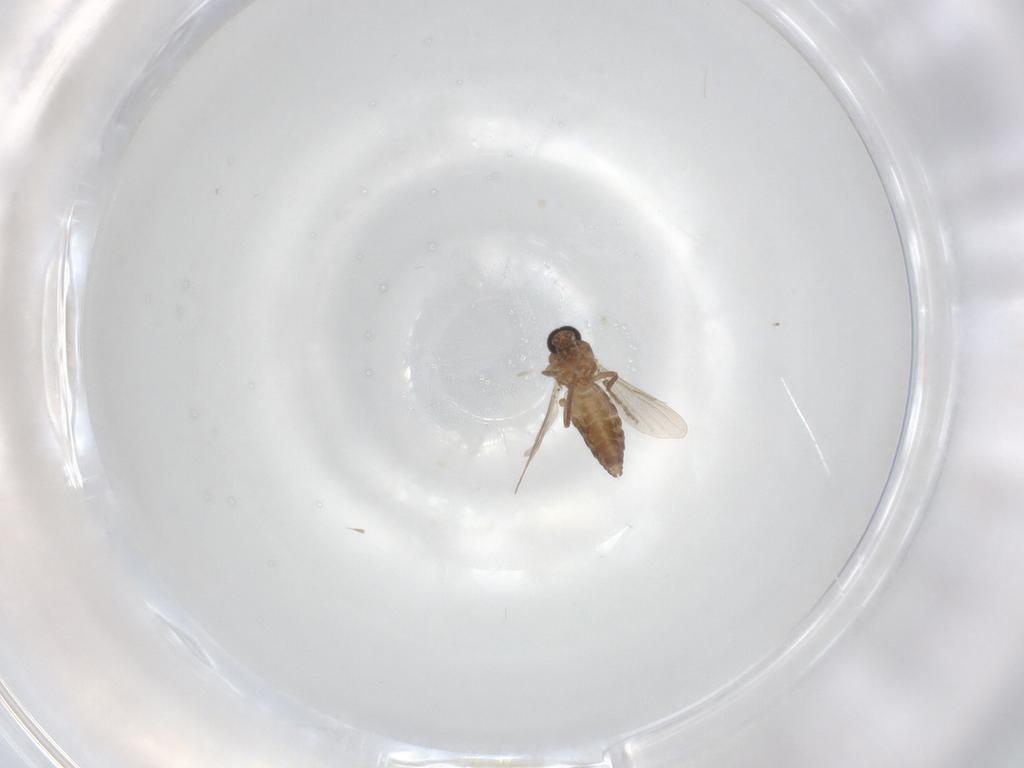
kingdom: Animalia
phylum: Arthropoda
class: Insecta
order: Diptera
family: Ceratopogonidae
